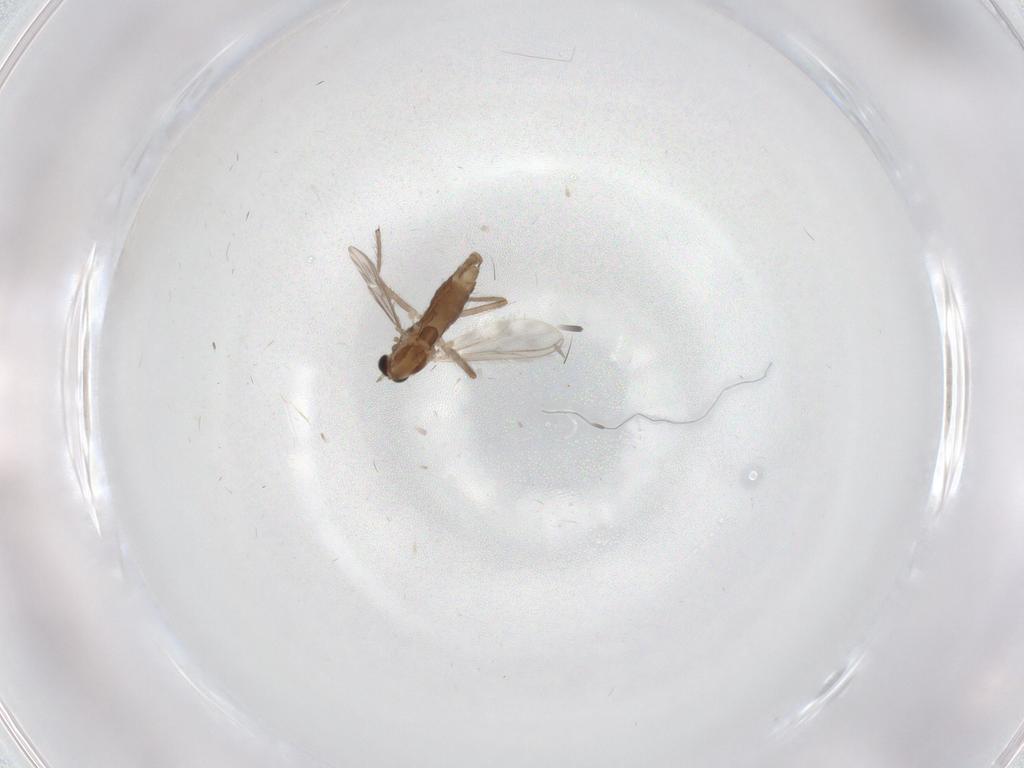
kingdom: Animalia
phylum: Arthropoda
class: Insecta
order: Diptera
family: Chironomidae
